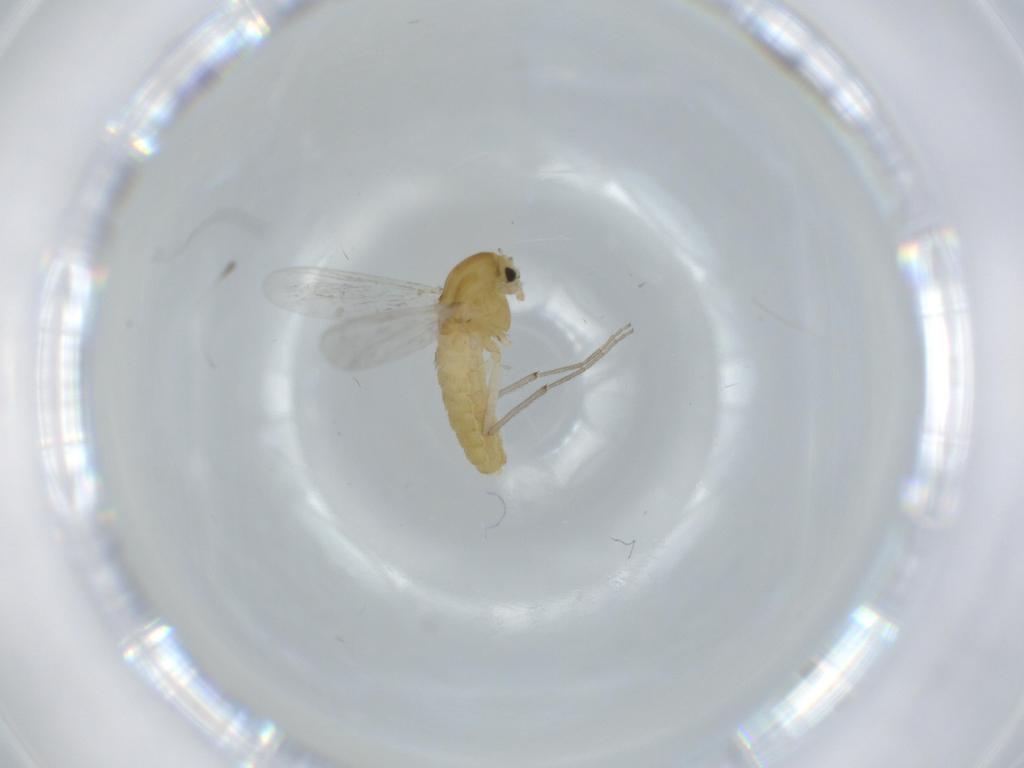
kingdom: Animalia
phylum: Arthropoda
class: Insecta
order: Diptera
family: Chironomidae
